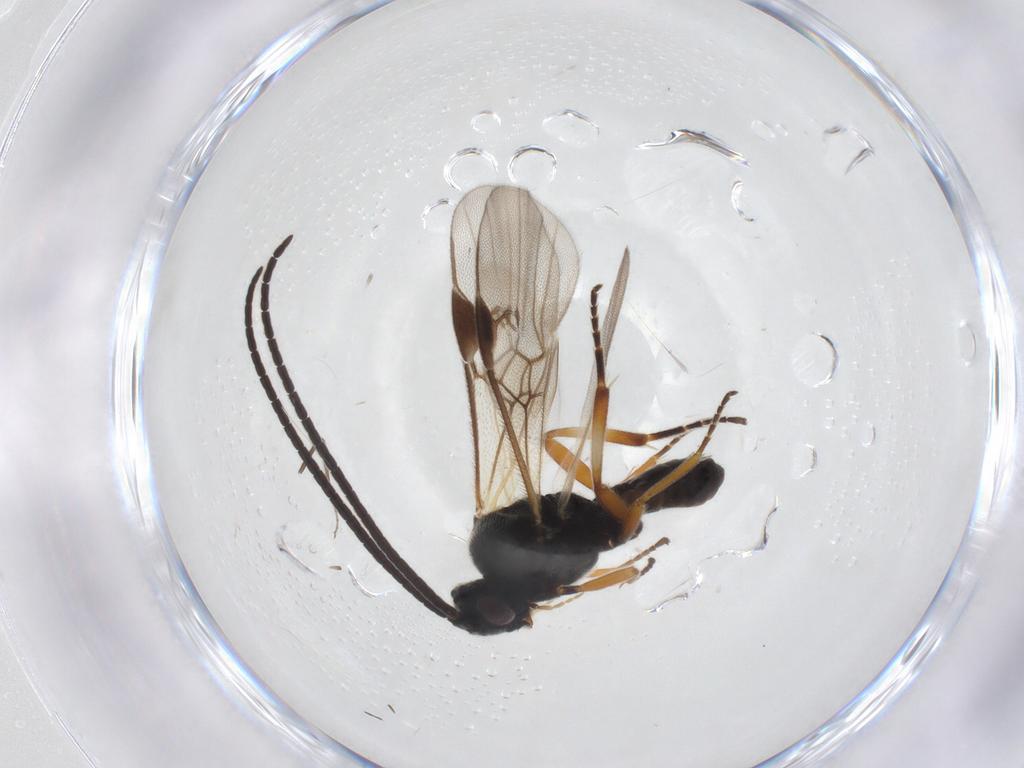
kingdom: Animalia
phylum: Arthropoda
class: Insecta
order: Hymenoptera
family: Braconidae
